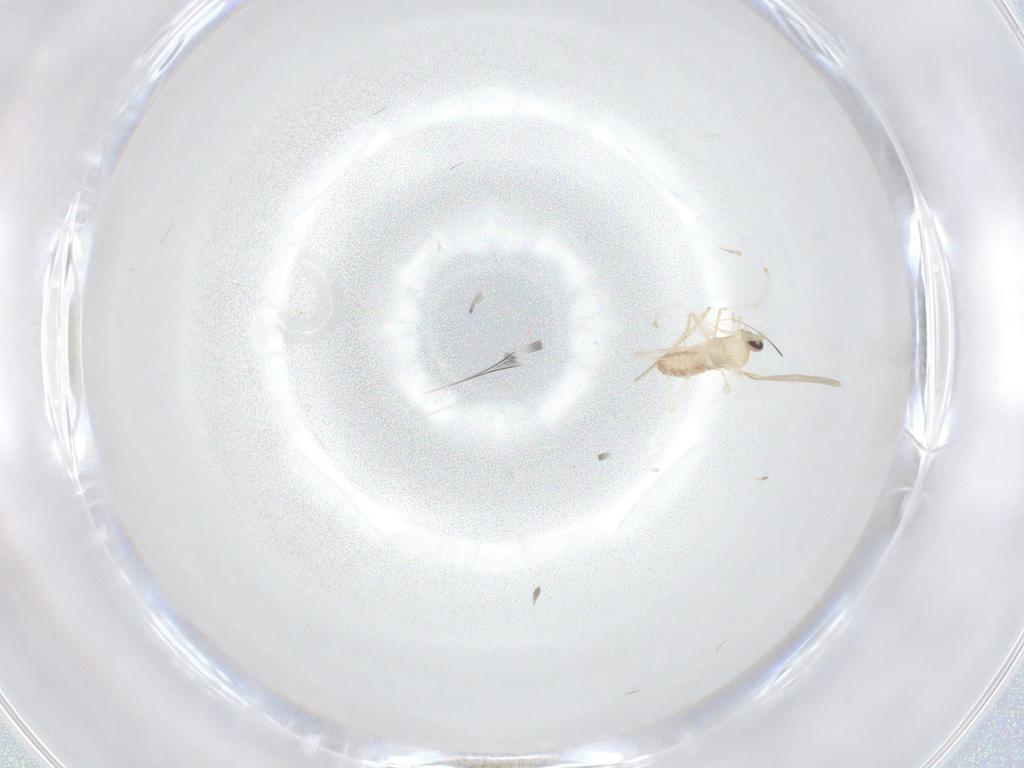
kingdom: Animalia
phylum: Arthropoda
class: Insecta
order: Diptera
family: Cecidomyiidae
